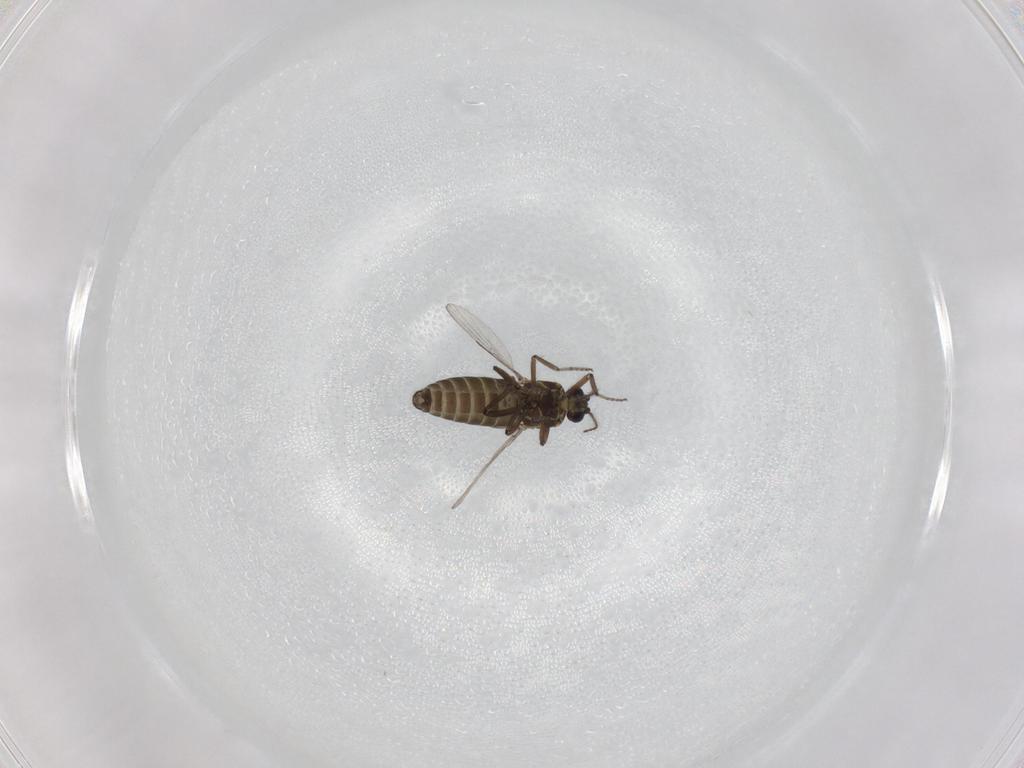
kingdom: Animalia
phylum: Arthropoda
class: Insecta
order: Diptera
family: Ceratopogonidae
